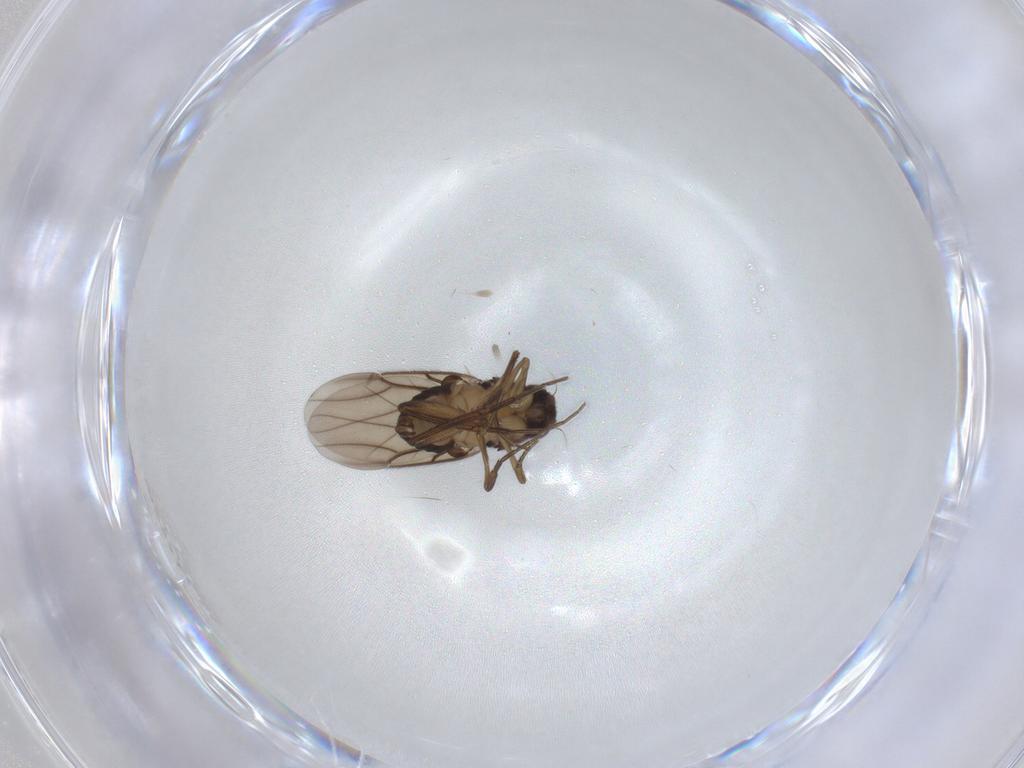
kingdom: Animalia
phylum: Arthropoda
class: Insecta
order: Diptera
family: Phoridae
